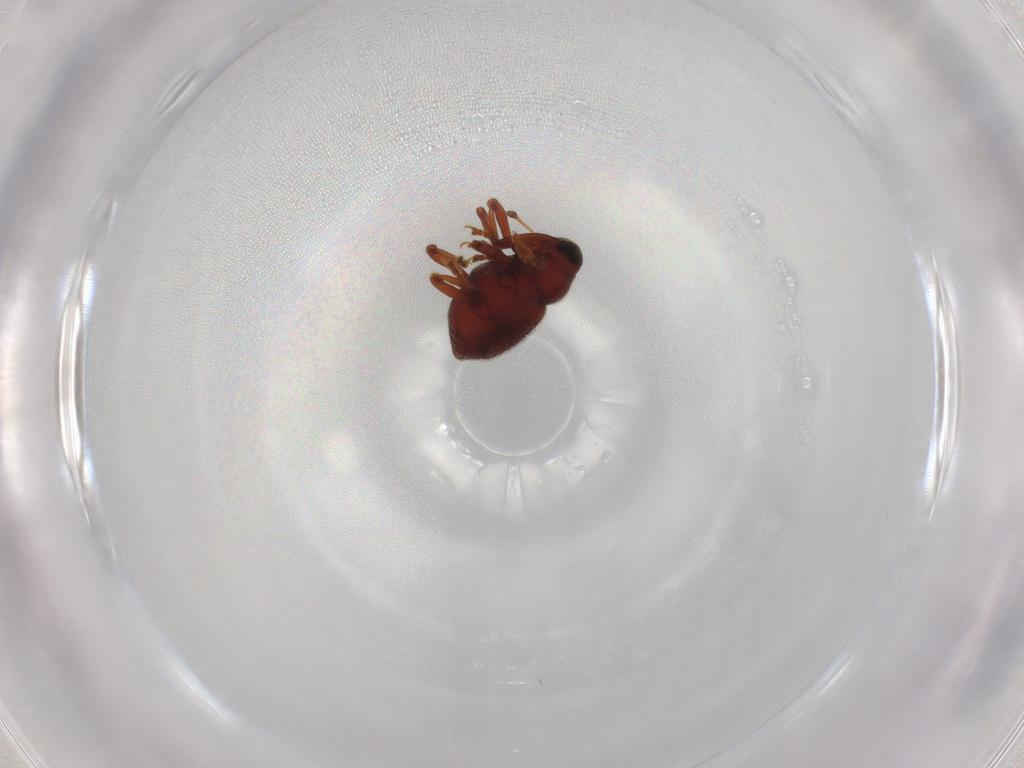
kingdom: Animalia
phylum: Arthropoda
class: Insecta
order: Coleoptera
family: Curculionidae
